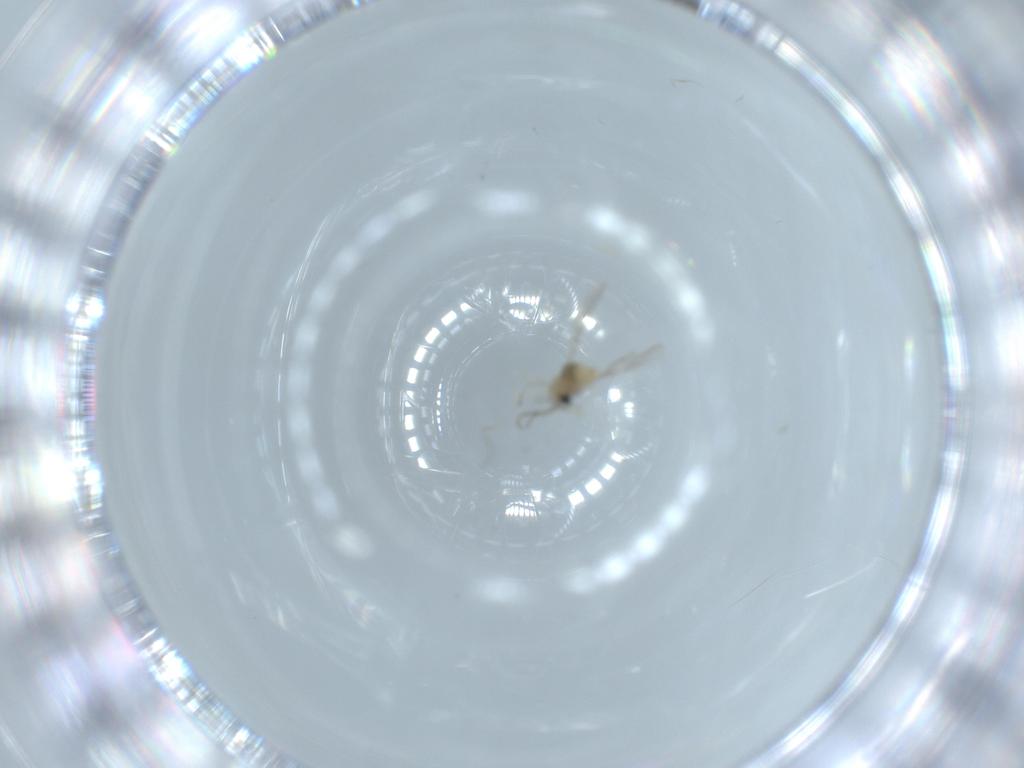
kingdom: Animalia
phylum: Arthropoda
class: Insecta
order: Diptera
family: Cecidomyiidae
